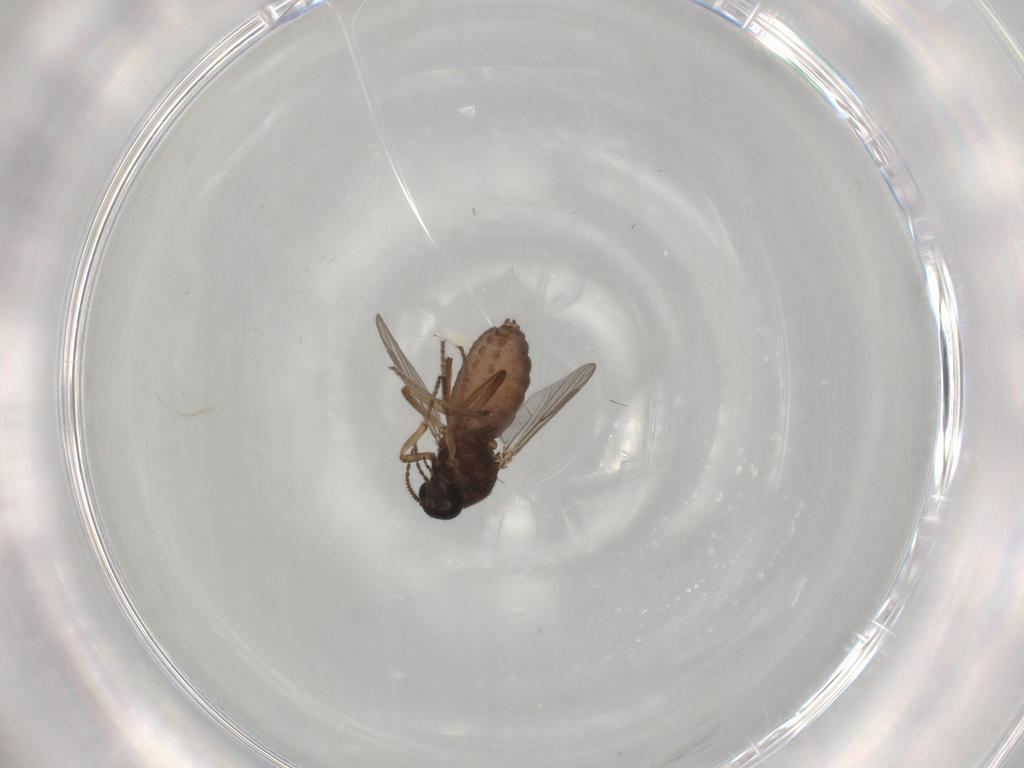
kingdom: Animalia
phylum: Arthropoda
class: Insecta
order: Diptera
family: Ceratopogonidae
